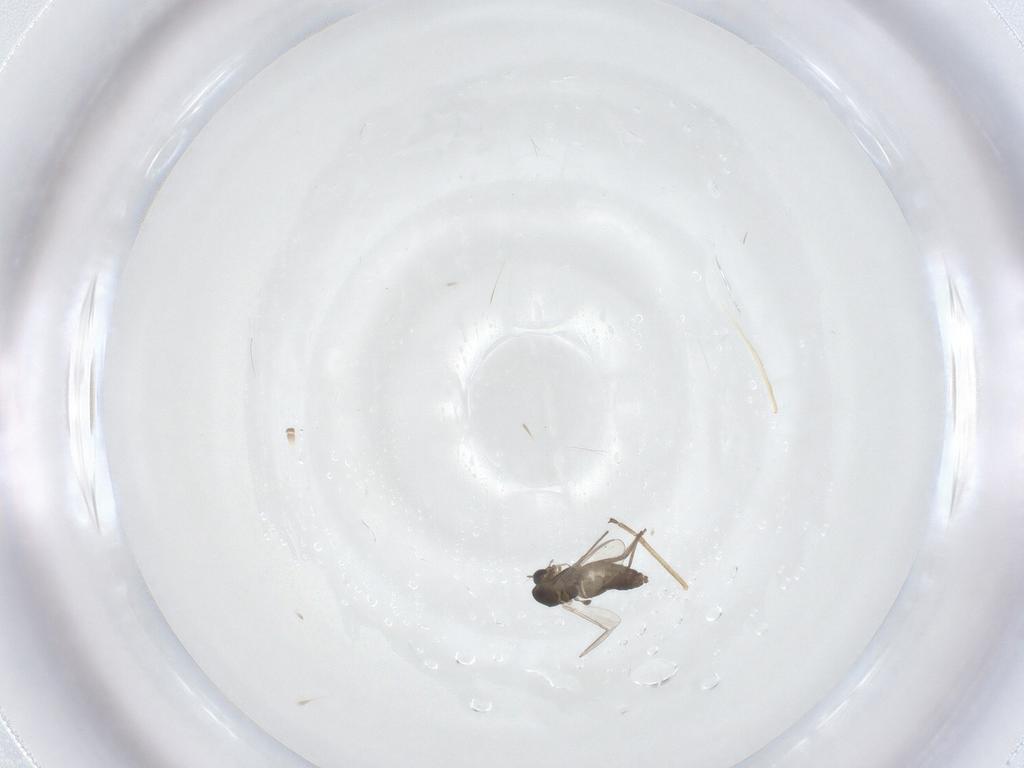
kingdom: Animalia
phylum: Arthropoda
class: Insecta
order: Diptera
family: Chironomidae
